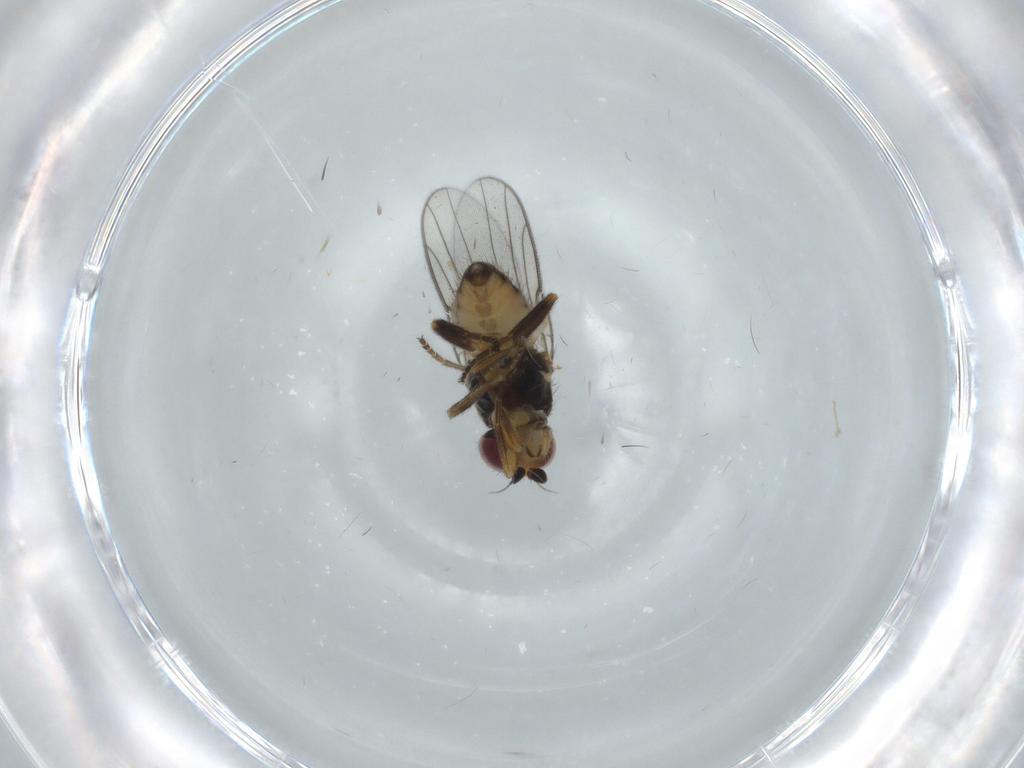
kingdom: Animalia
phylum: Arthropoda
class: Insecta
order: Diptera
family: Chloropidae
